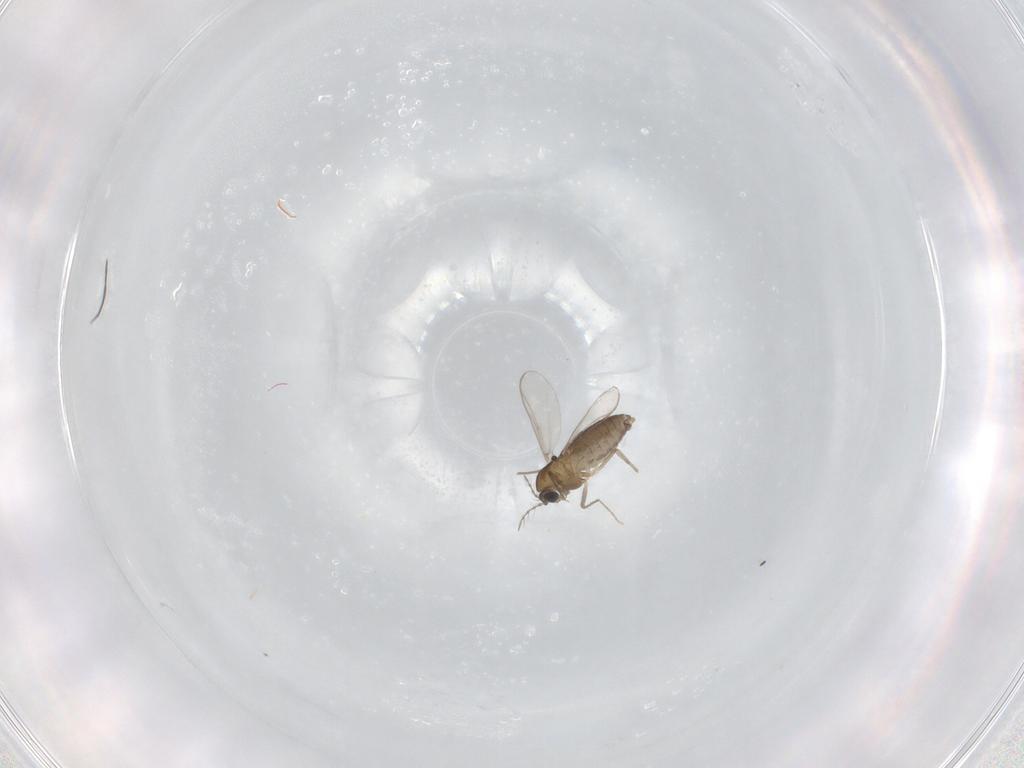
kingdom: Animalia
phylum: Arthropoda
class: Insecta
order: Diptera
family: Chironomidae
